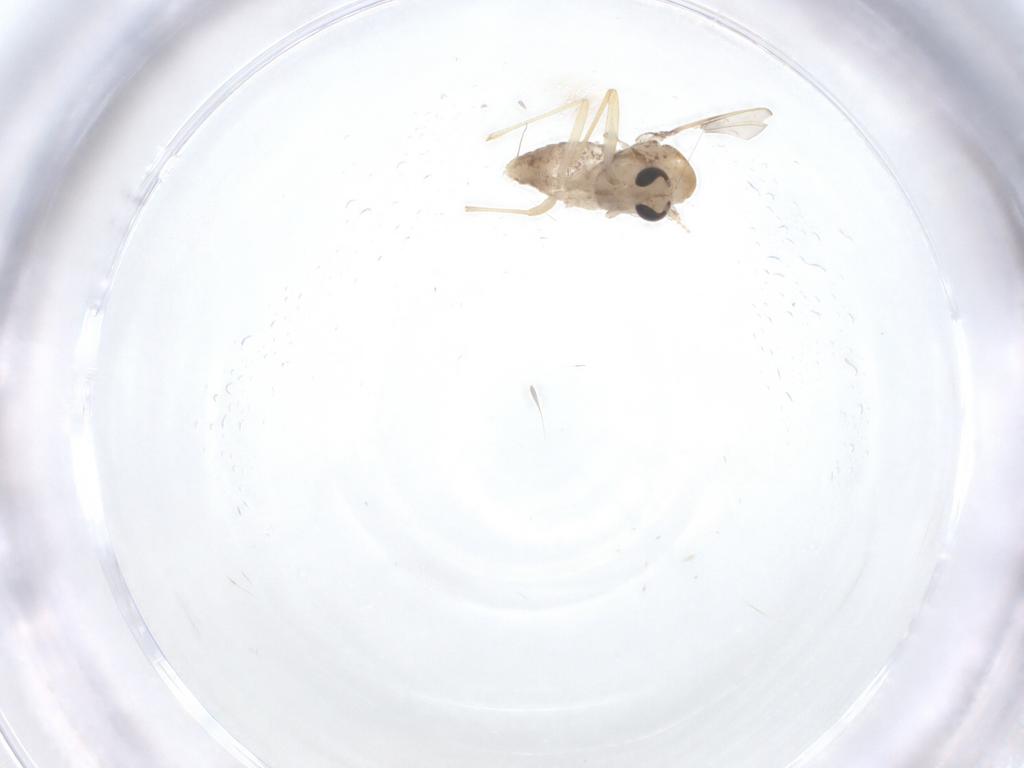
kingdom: Animalia
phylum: Arthropoda
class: Insecta
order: Diptera
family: Chironomidae
